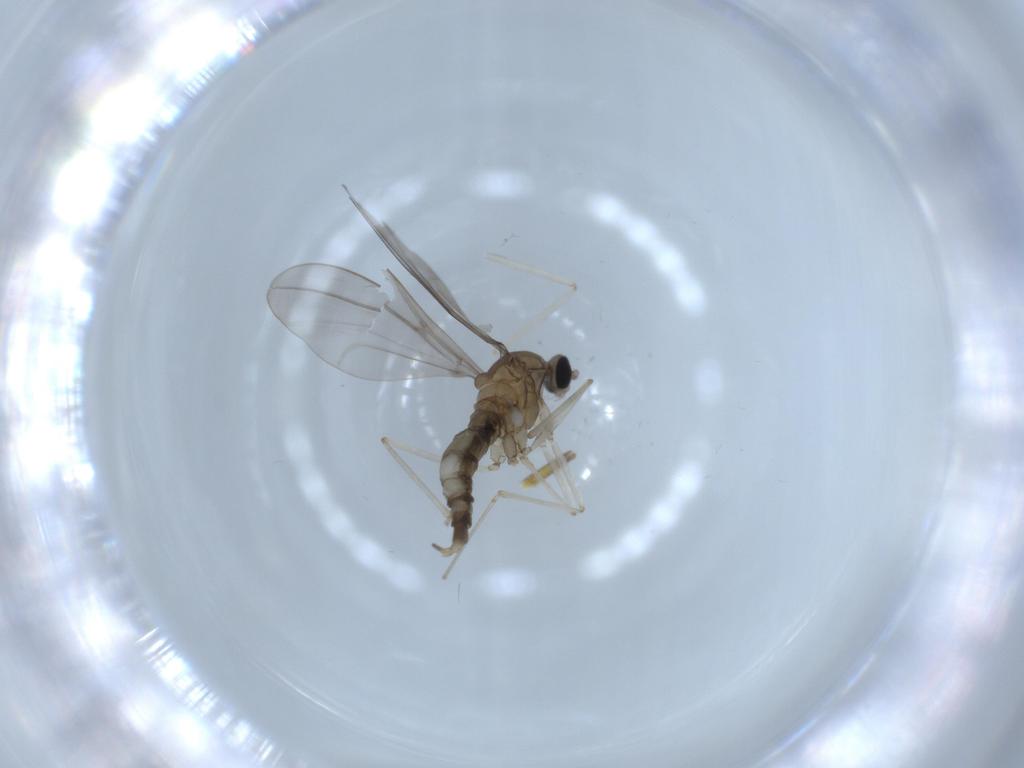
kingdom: Animalia
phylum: Arthropoda
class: Insecta
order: Diptera
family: Cecidomyiidae
